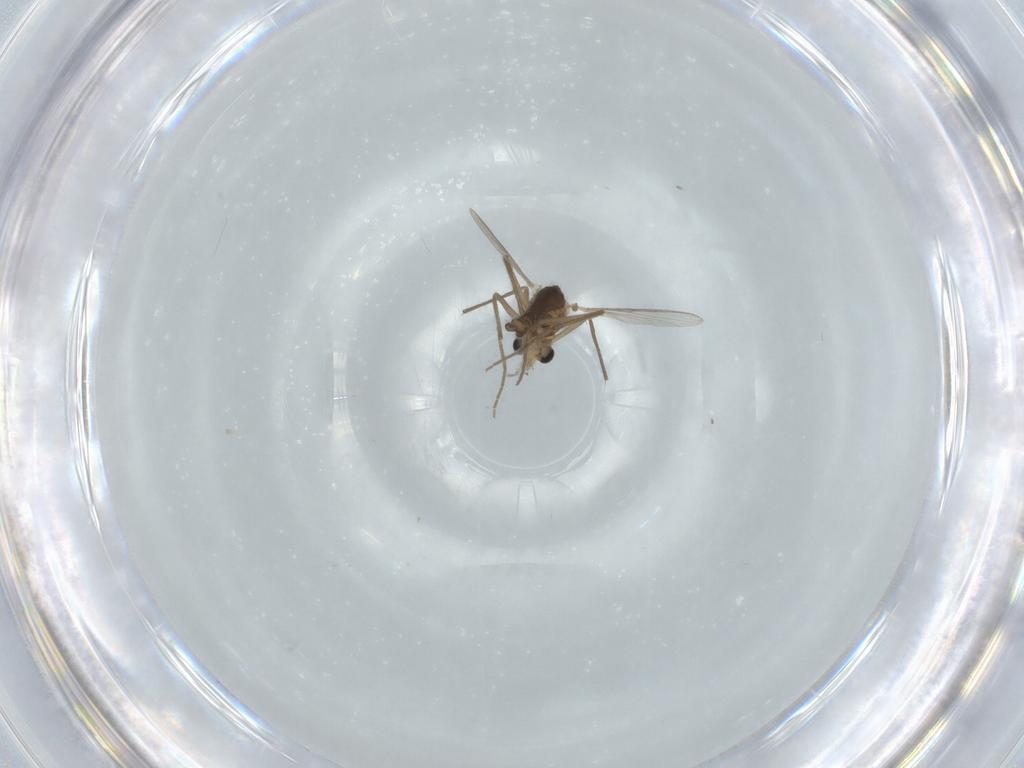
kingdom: Animalia
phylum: Arthropoda
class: Insecta
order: Diptera
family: Chironomidae
